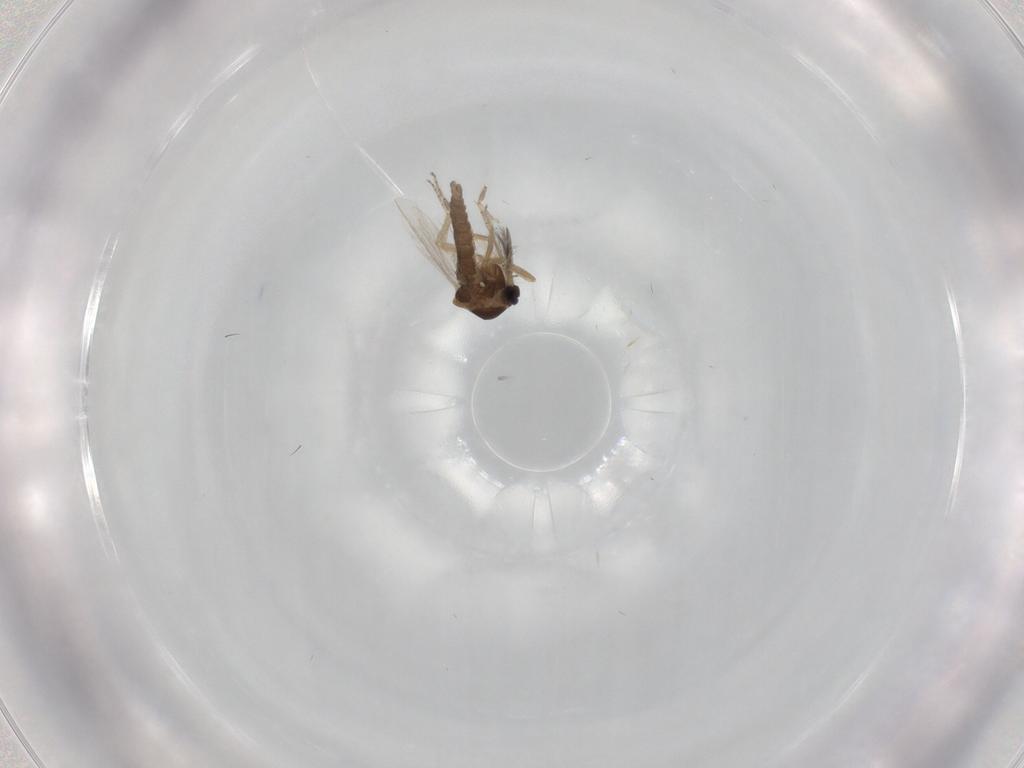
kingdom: Animalia
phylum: Arthropoda
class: Insecta
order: Diptera
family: Ceratopogonidae
